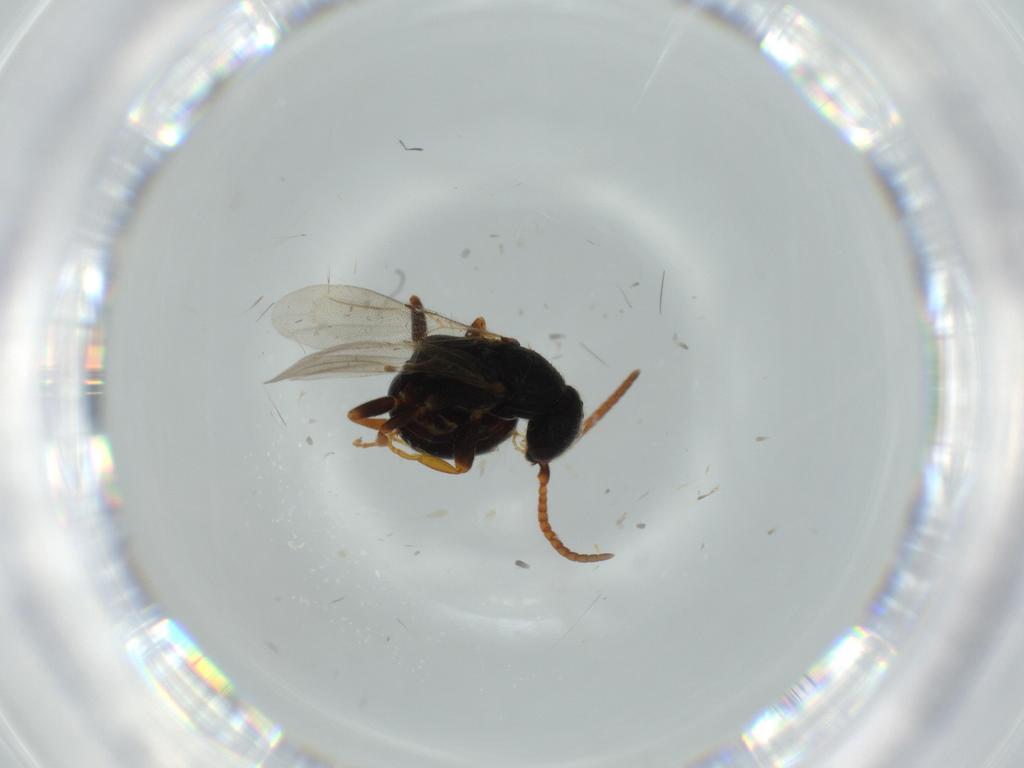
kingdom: Animalia
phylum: Arthropoda
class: Insecta
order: Hymenoptera
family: Bethylidae
